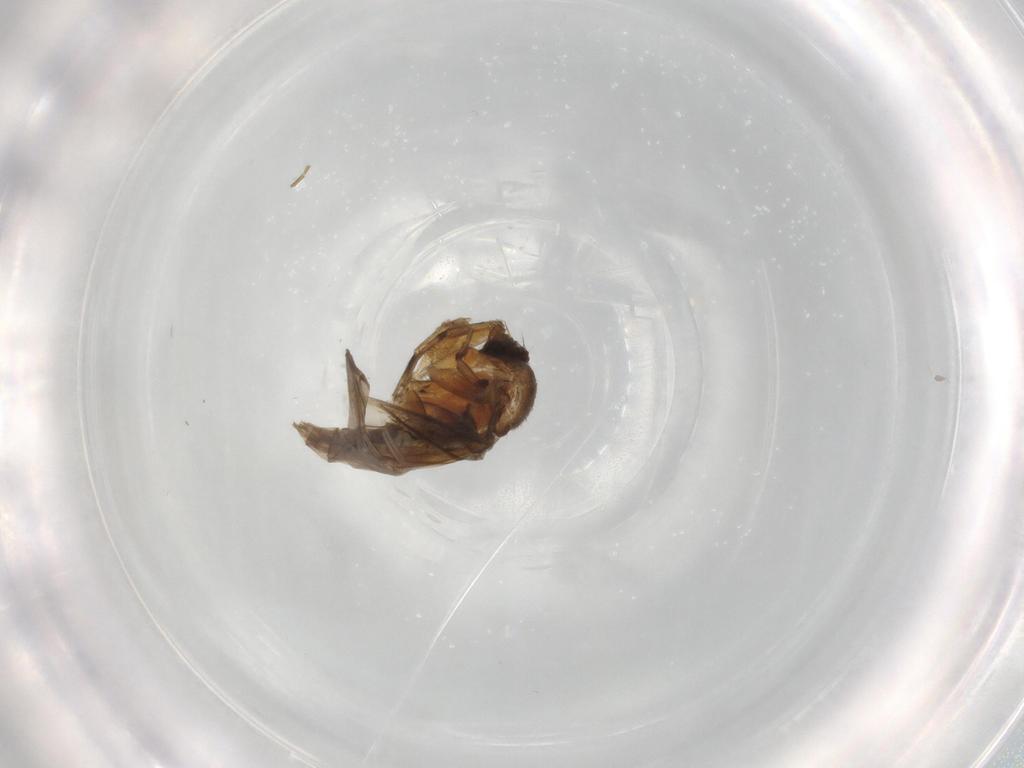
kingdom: Animalia
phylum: Arthropoda
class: Insecta
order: Diptera
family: Cecidomyiidae
